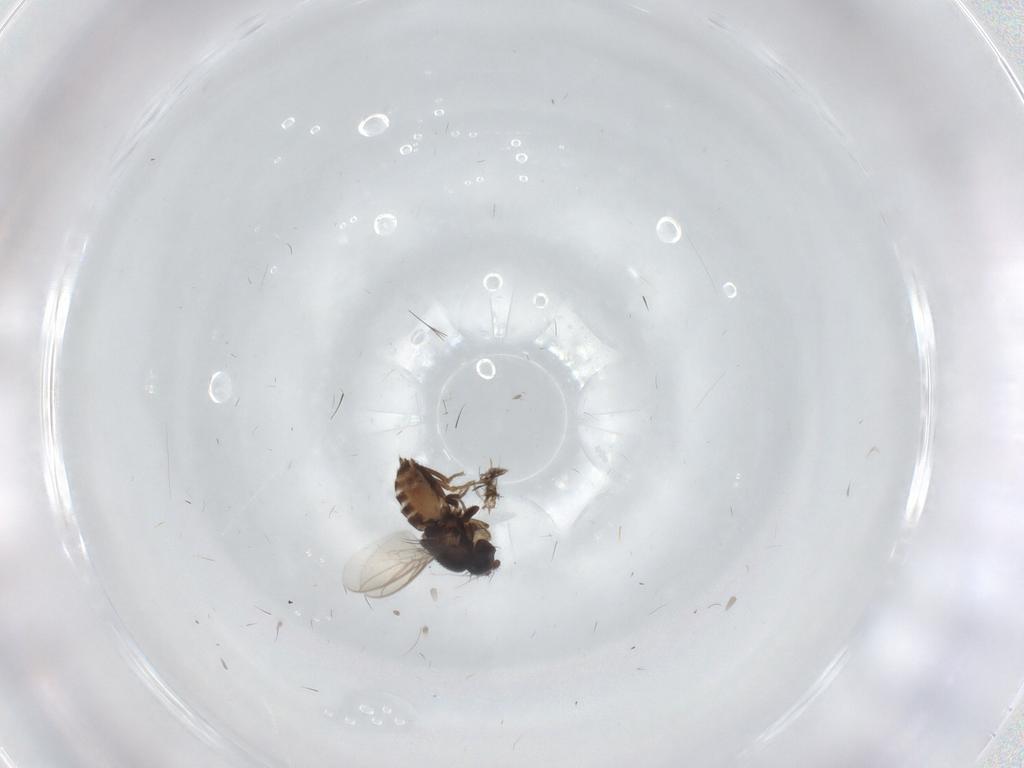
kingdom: Animalia
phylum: Arthropoda
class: Insecta
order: Diptera
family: Sphaeroceridae
